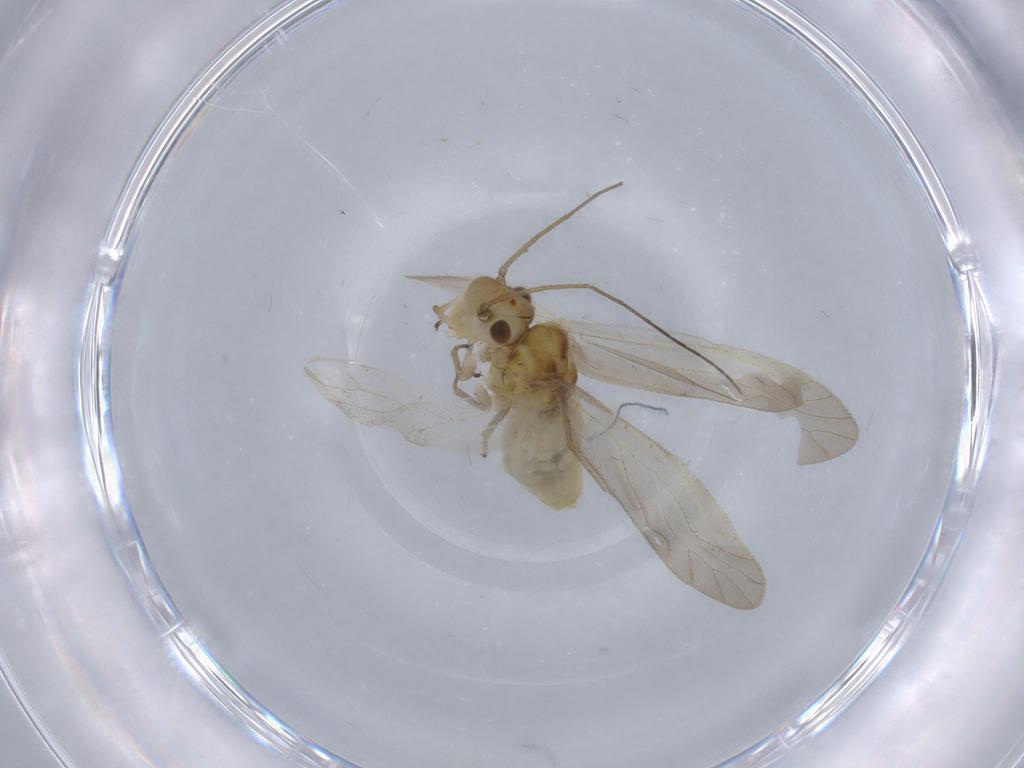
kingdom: Animalia
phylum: Arthropoda
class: Insecta
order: Psocodea
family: Caeciliusidae
